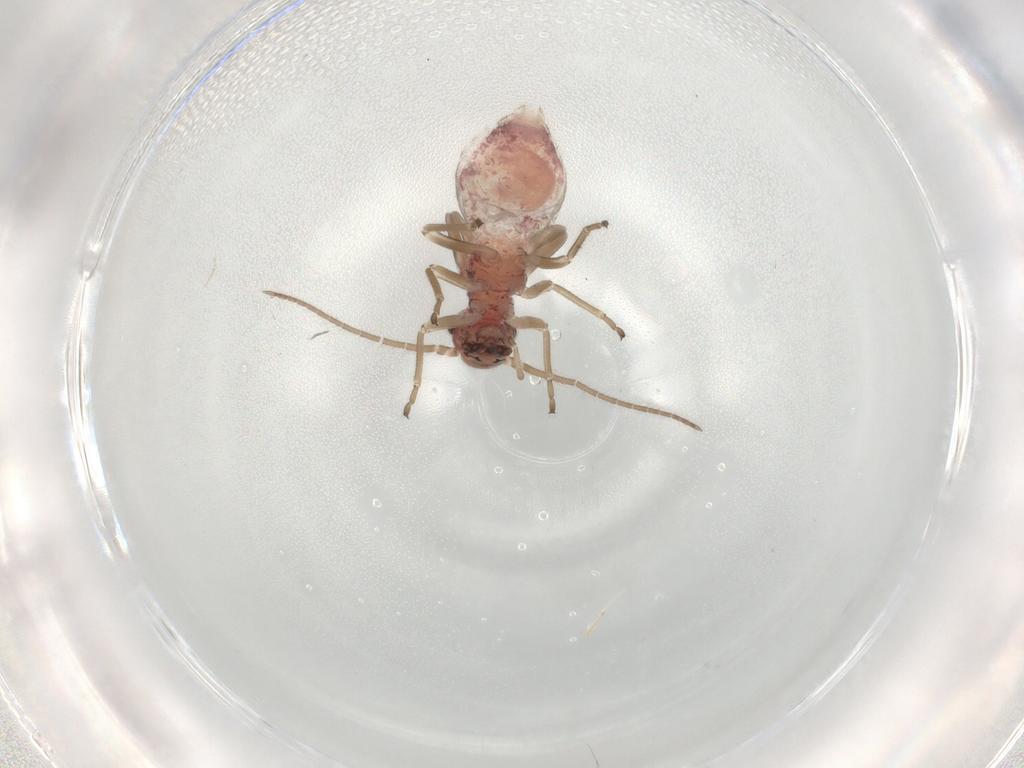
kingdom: Animalia
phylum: Arthropoda
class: Insecta
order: Psocodea
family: Caeciliusidae
